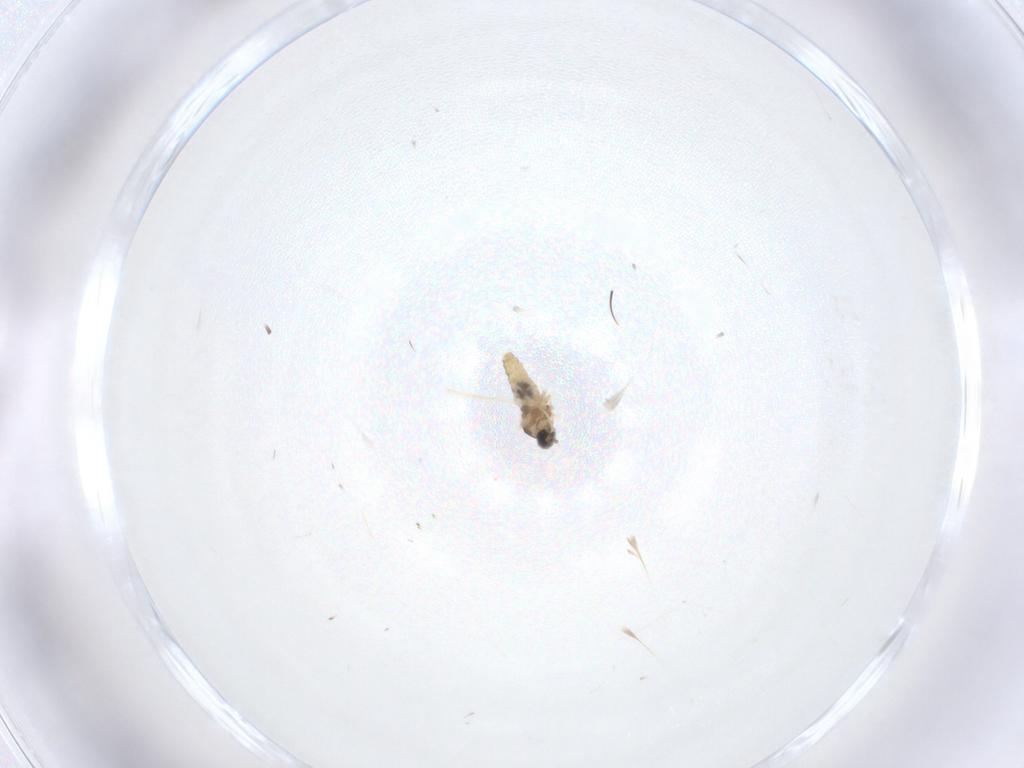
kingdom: Animalia
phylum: Arthropoda
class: Insecta
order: Diptera
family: Cecidomyiidae
